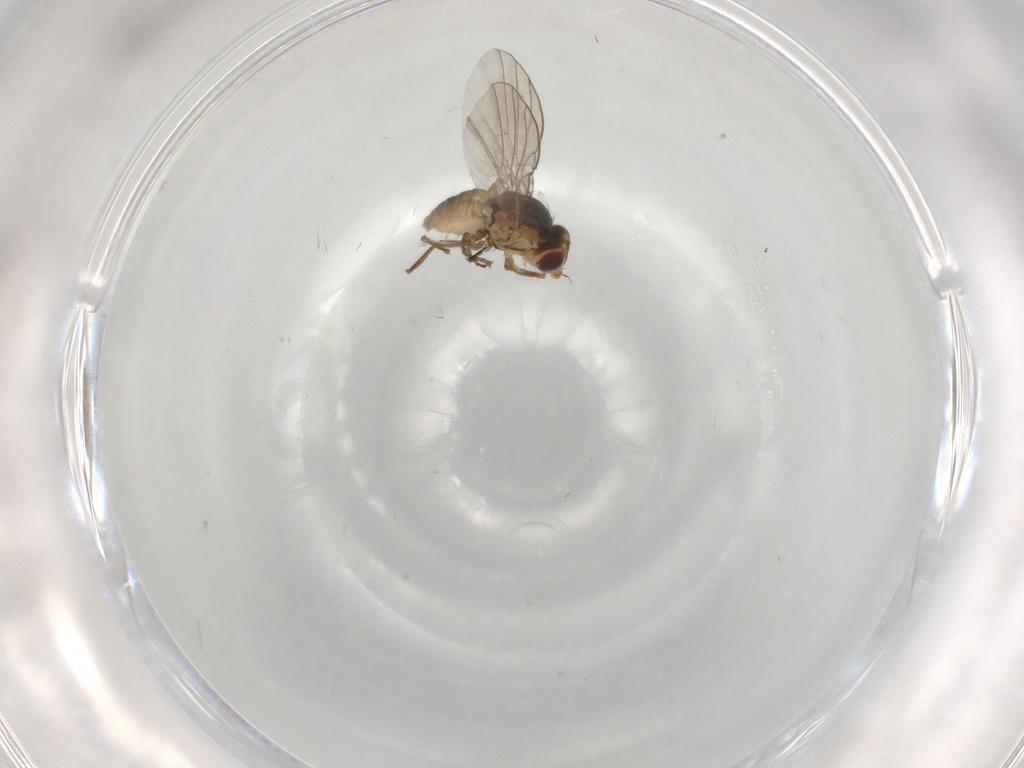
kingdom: Animalia
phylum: Arthropoda
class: Insecta
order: Diptera
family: Agromyzidae
